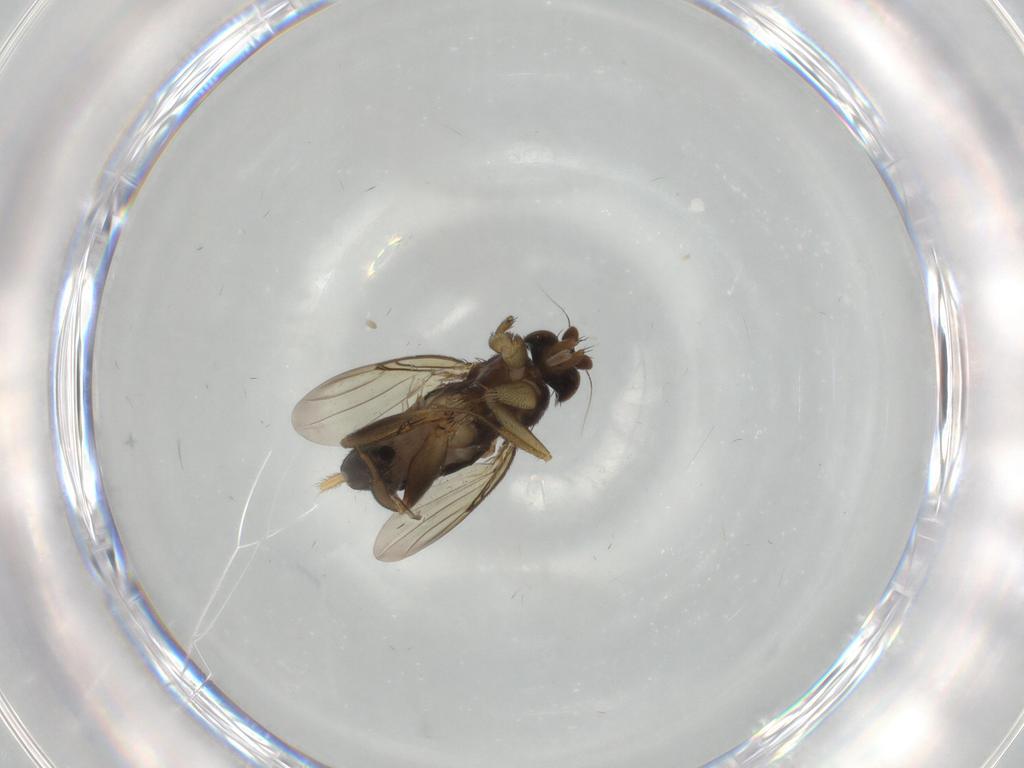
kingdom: Animalia
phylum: Arthropoda
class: Insecta
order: Diptera
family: Phoridae
